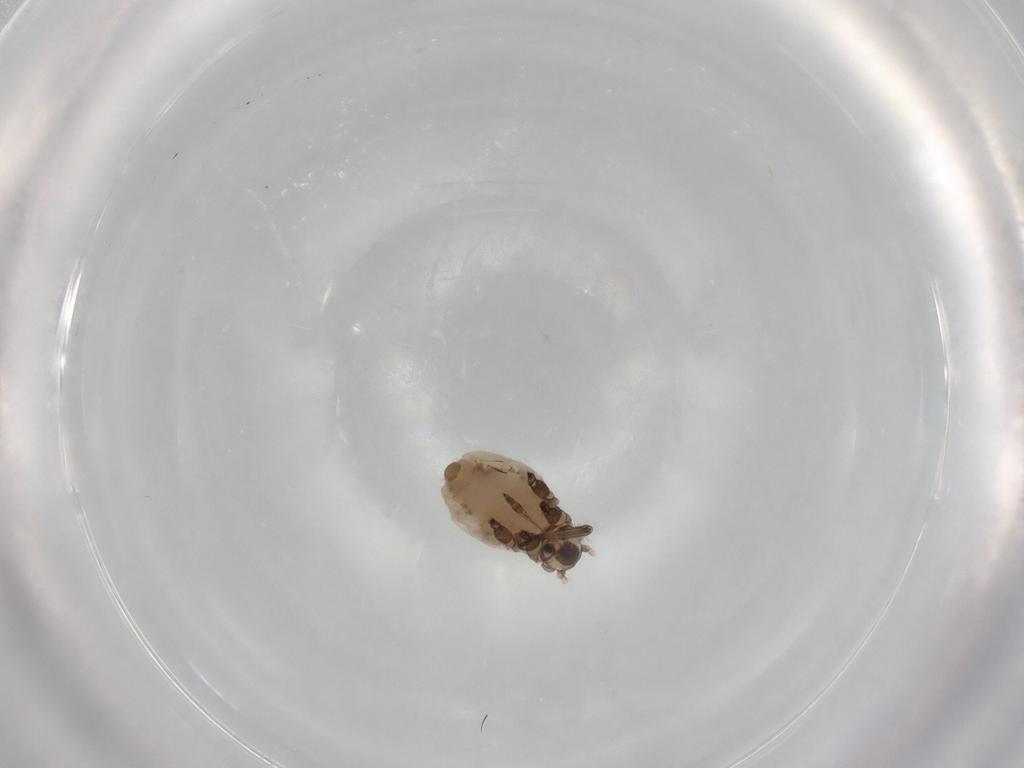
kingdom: Animalia
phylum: Arthropoda
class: Insecta
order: Hemiptera
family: Aphididae
